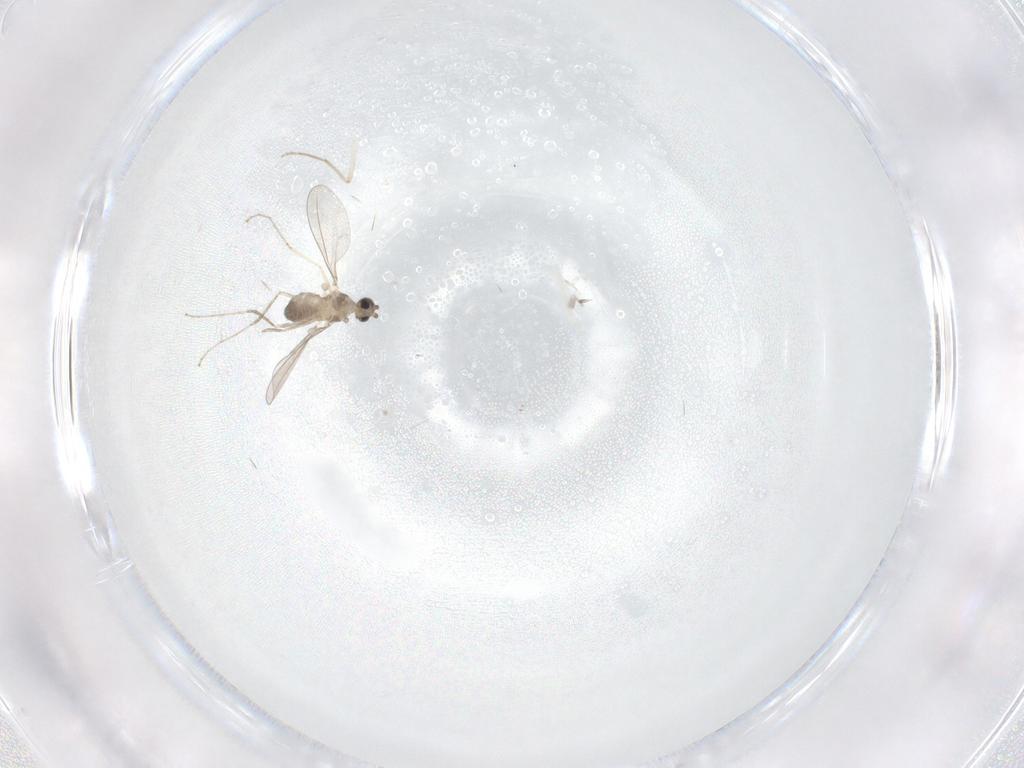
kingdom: Animalia
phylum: Arthropoda
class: Insecta
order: Diptera
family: Chironomidae
